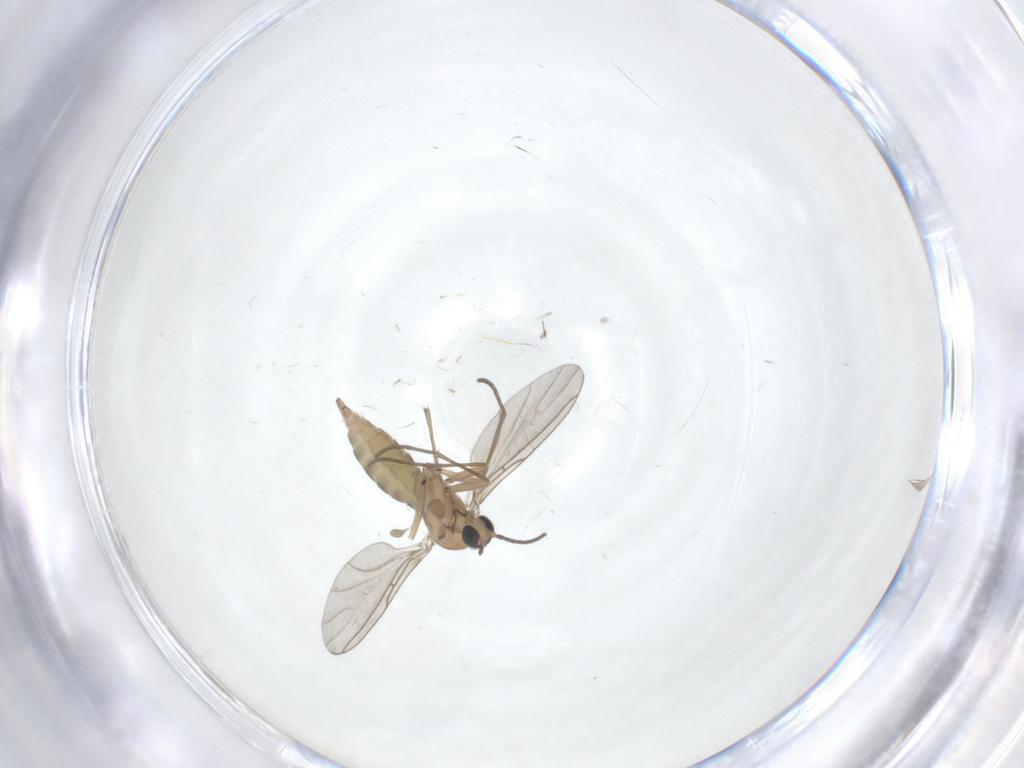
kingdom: Animalia
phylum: Arthropoda
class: Insecta
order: Diptera
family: Sciaridae
